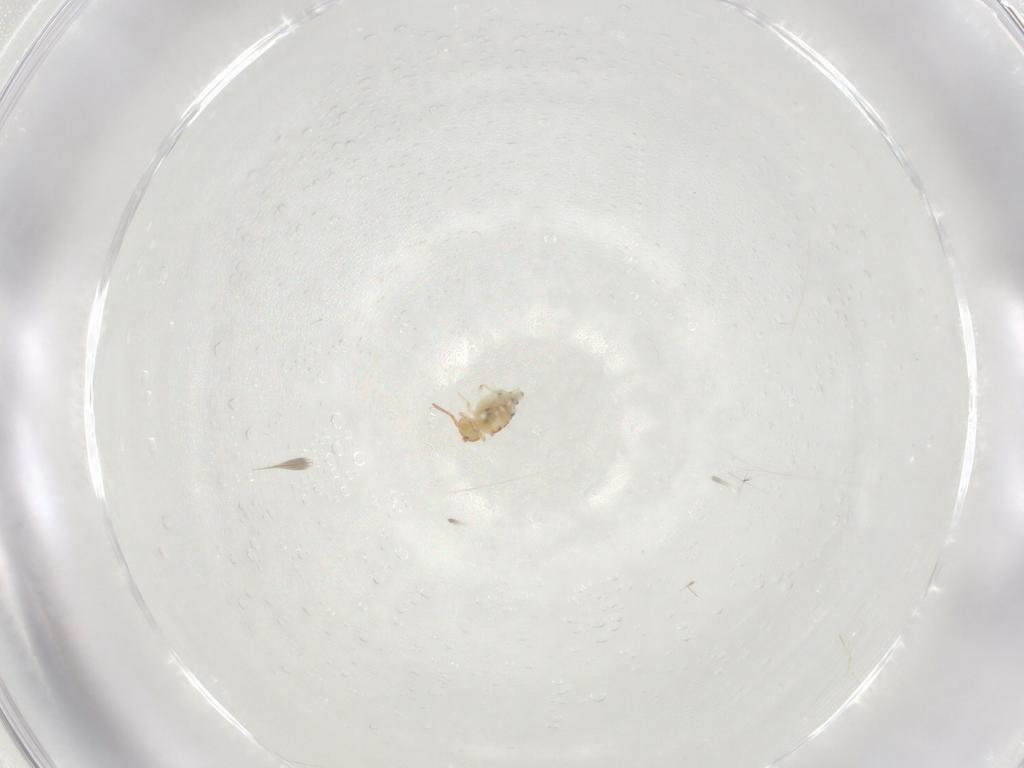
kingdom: Animalia
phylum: Arthropoda
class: Collembola
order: Symphypleona
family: Bourletiellidae
